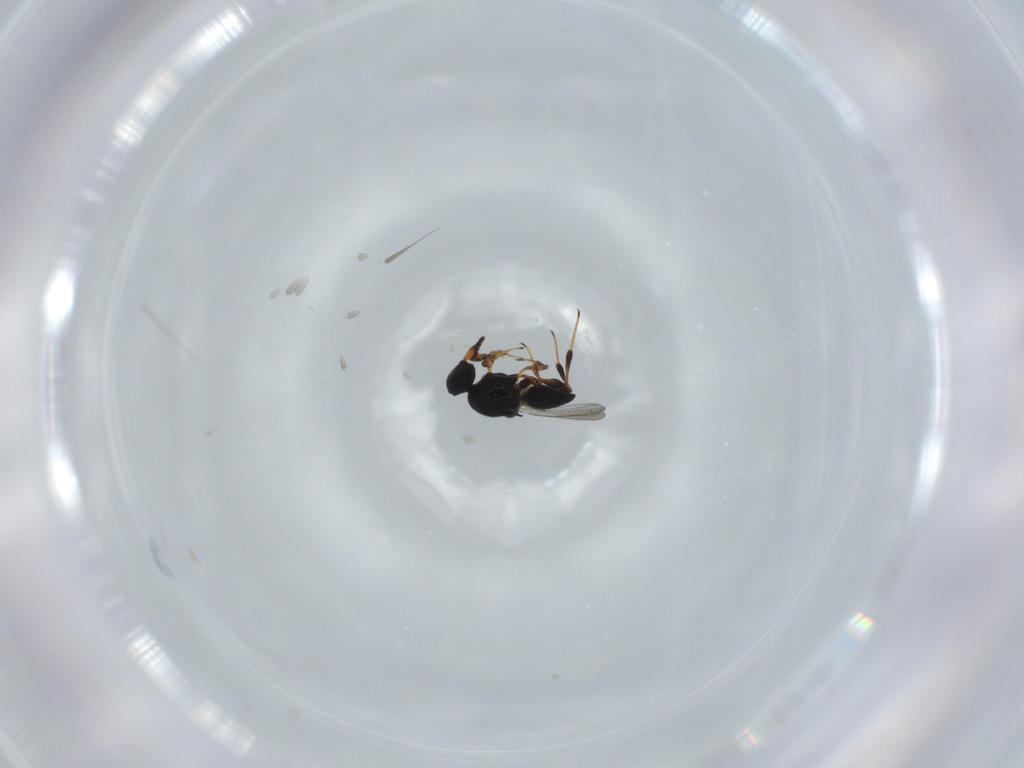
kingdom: Animalia
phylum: Arthropoda
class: Insecta
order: Hymenoptera
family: Platygastridae
